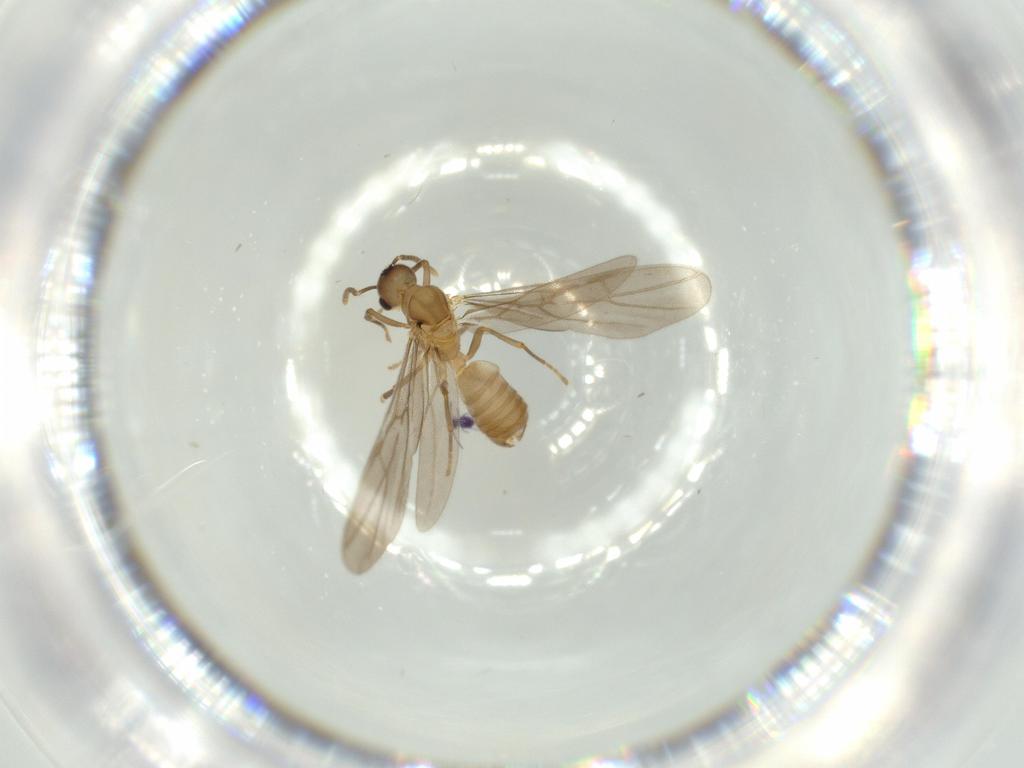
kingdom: Animalia
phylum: Arthropoda
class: Collembola
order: Symphypleona
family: Sminthurididae
